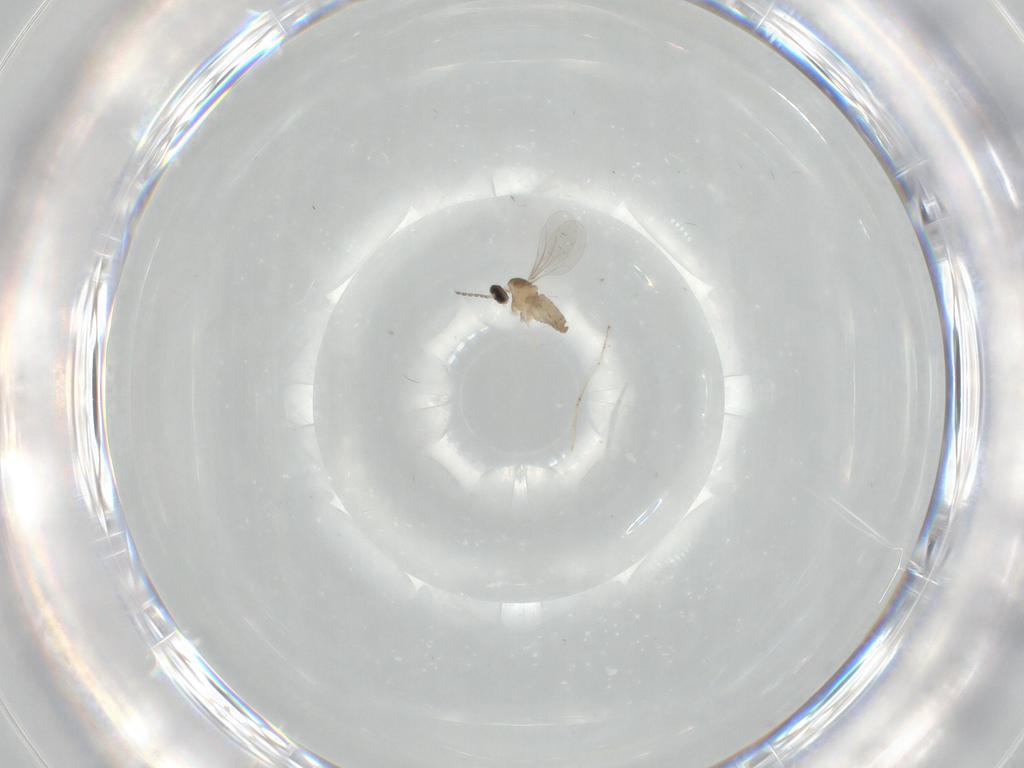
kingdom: Animalia
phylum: Arthropoda
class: Insecta
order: Diptera
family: Cecidomyiidae
